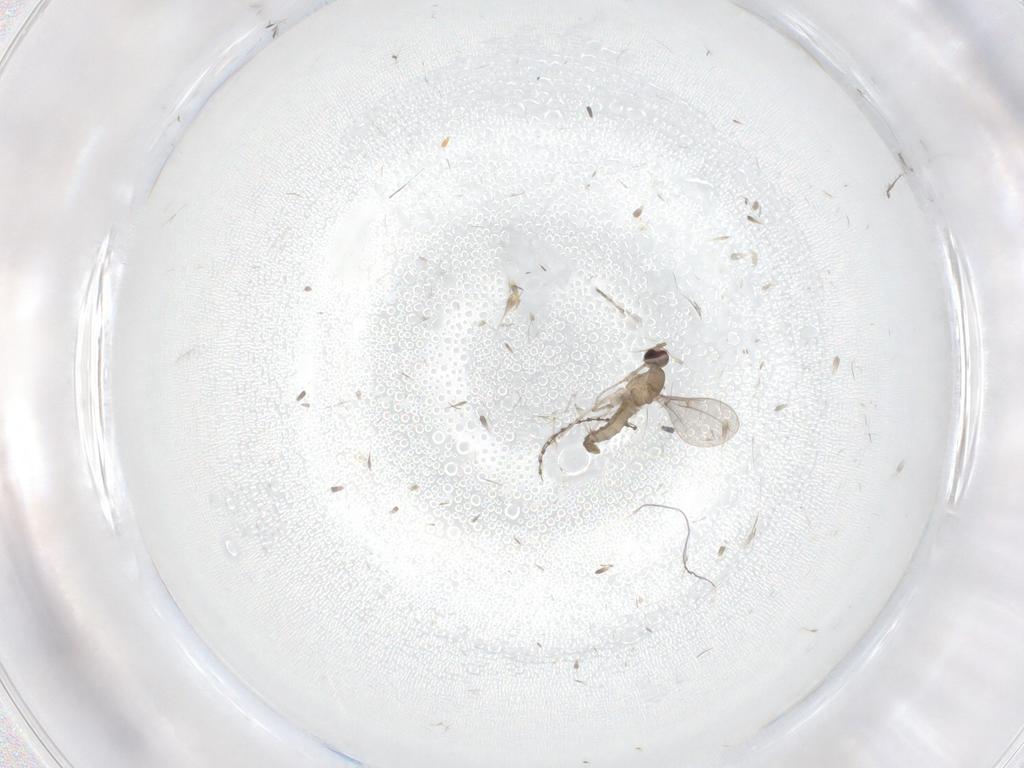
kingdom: Animalia
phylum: Arthropoda
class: Insecta
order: Diptera
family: Cecidomyiidae
